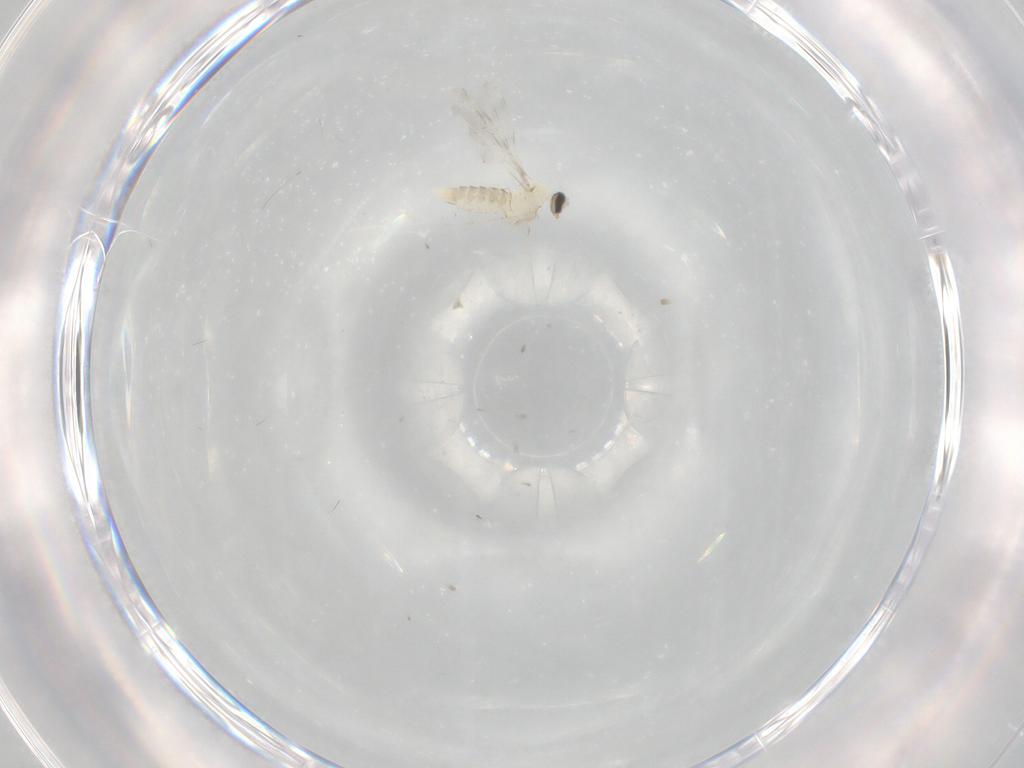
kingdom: Animalia
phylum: Arthropoda
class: Insecta
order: Diptera
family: Cecidomyiidae
